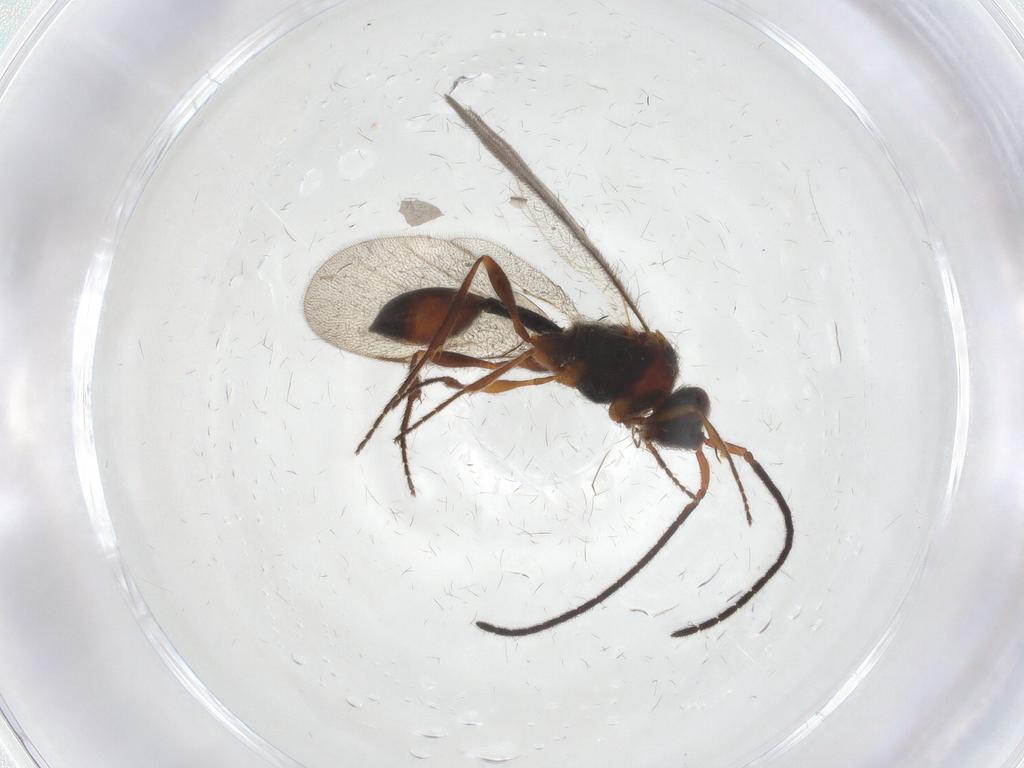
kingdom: Animalia
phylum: Arthropoda
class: Insecta
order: Hymenoptera
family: Diapriidae
